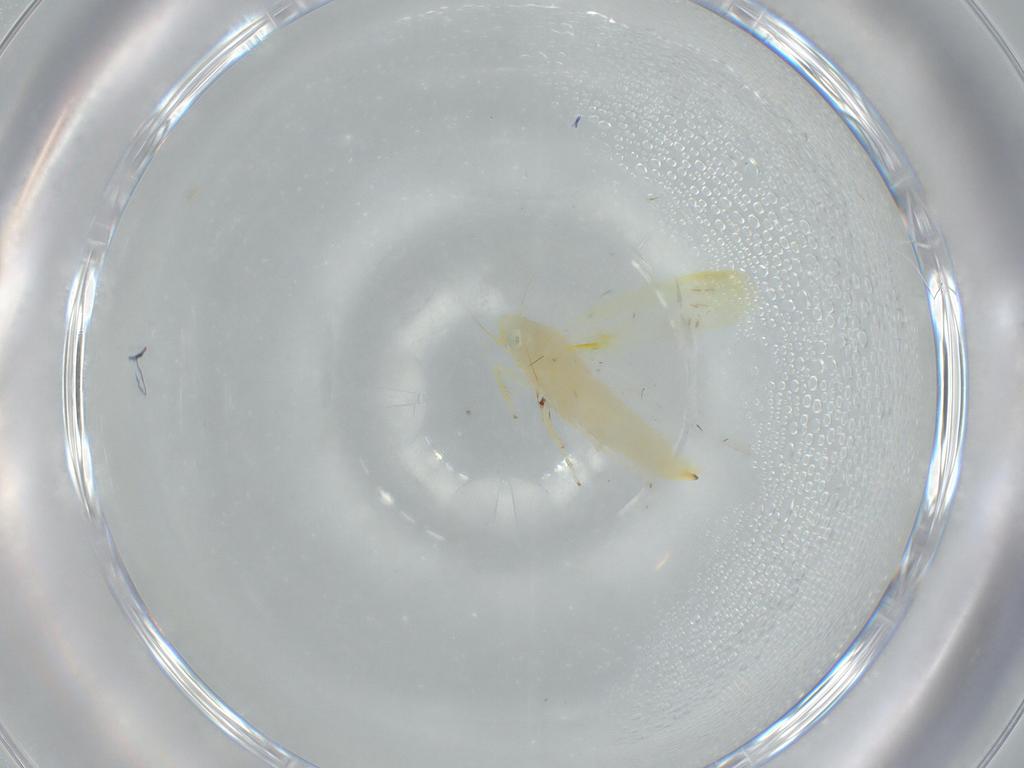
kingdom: Animalia
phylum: Arthropoda
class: Insecta
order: Hemiptera
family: Cicadellidae
